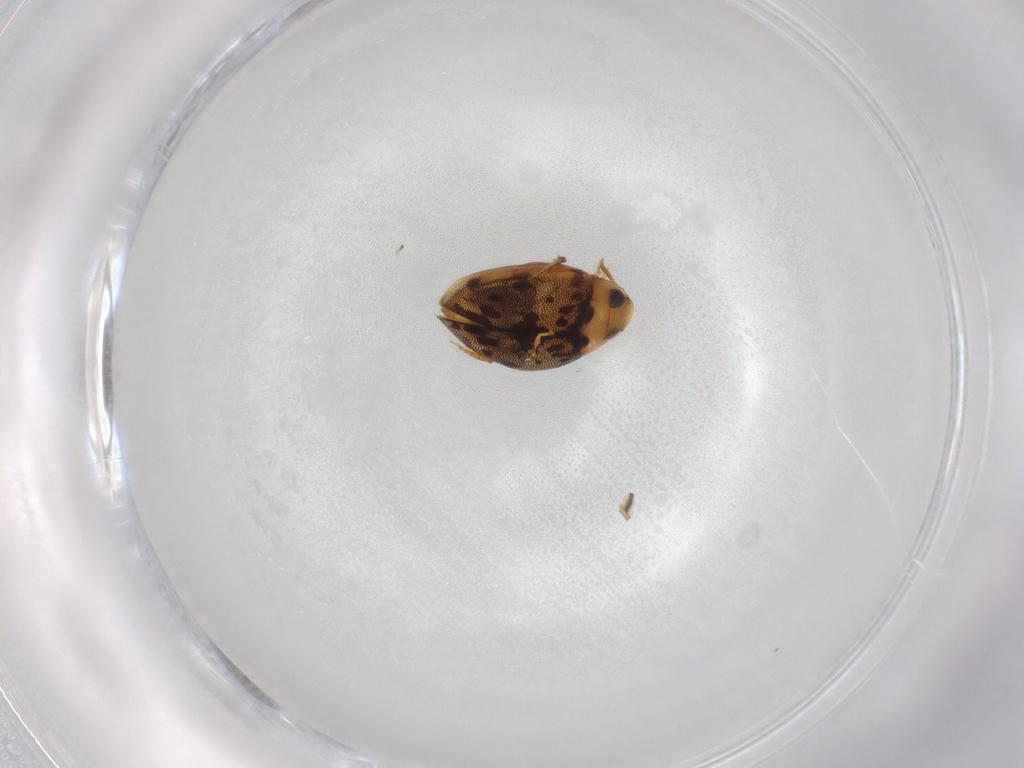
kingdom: Animalia
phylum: Arthropoda
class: Insecta
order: Coleoptera
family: Dytiscidae
